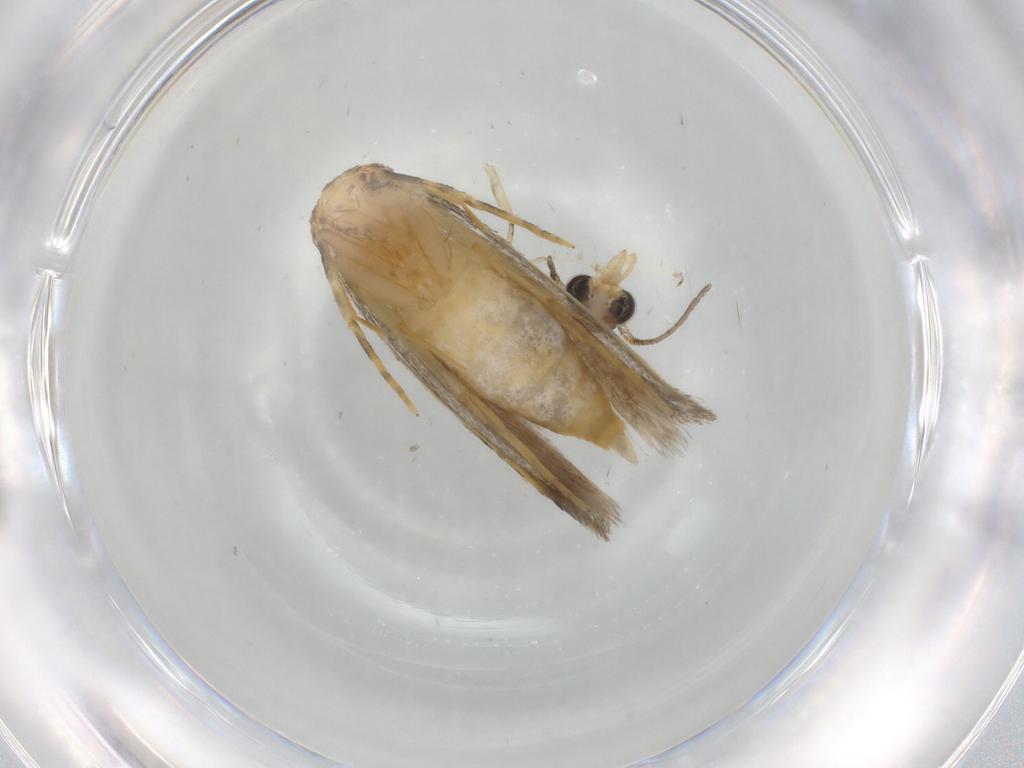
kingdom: Animalia
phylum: Arthropoda
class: Insecta
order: Lepidoptera
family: Autostichidae
